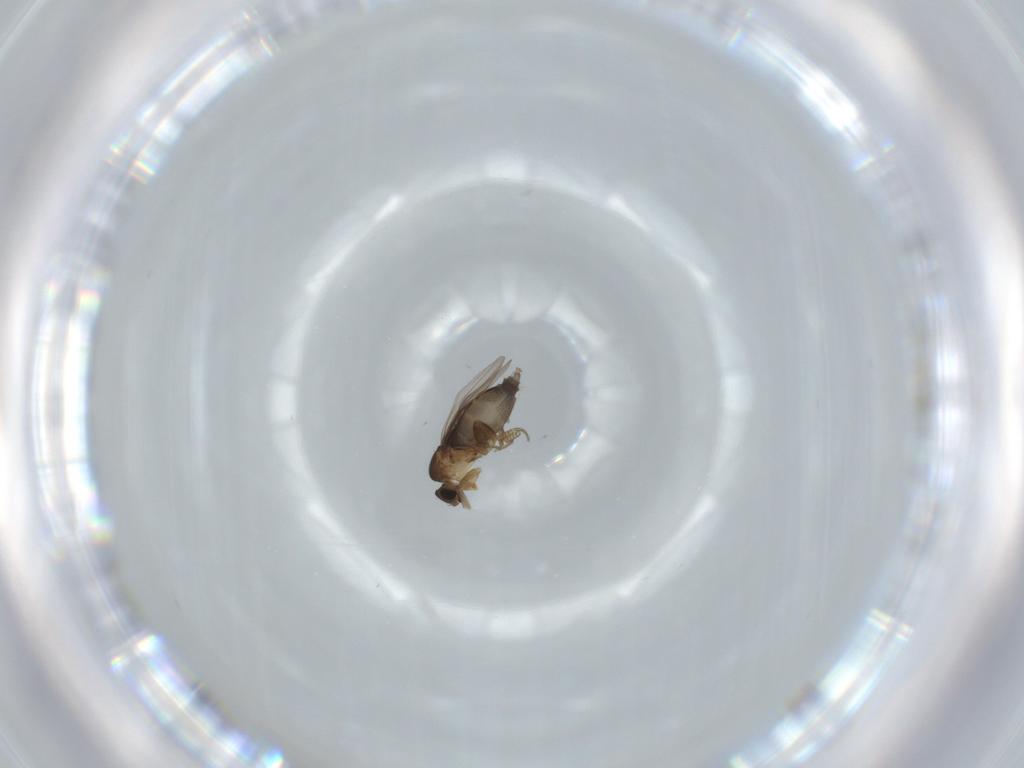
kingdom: Animalia
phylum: Arthropoda
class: Insecta
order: Diptera
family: Phoridae
